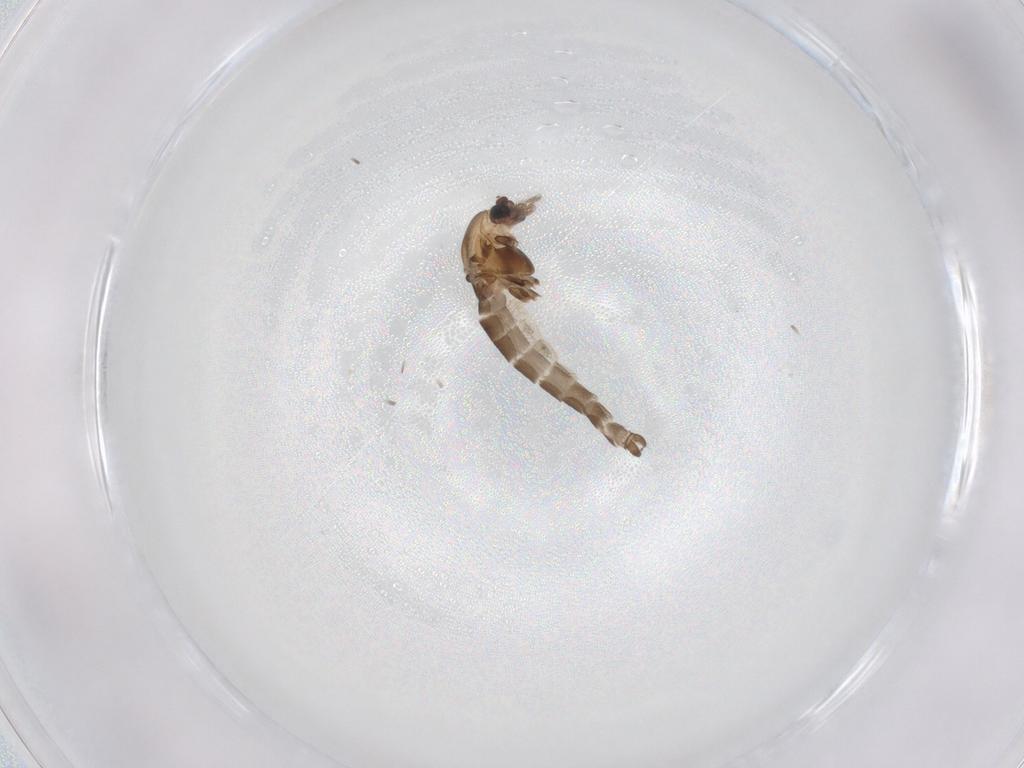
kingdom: Animalia
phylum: Arthropoda
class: Insecta
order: Diptera
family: Chironomidae
